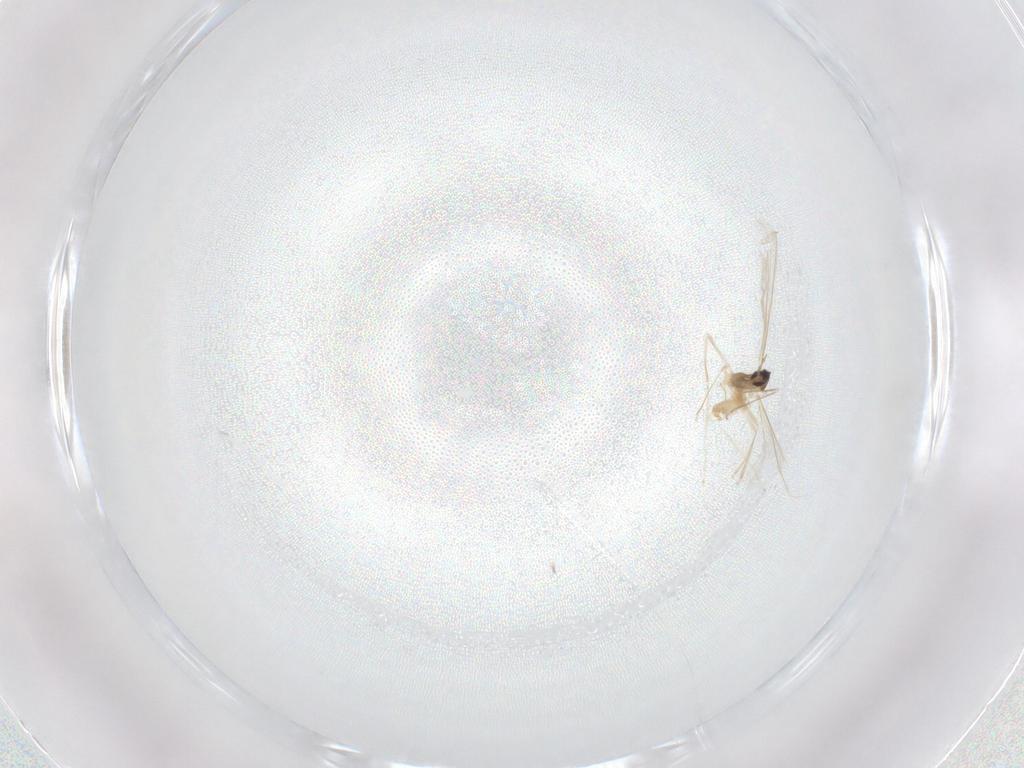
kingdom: Animalia
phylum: Arthropoda
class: Insecta
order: Diptera
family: Cecidomyiidae
